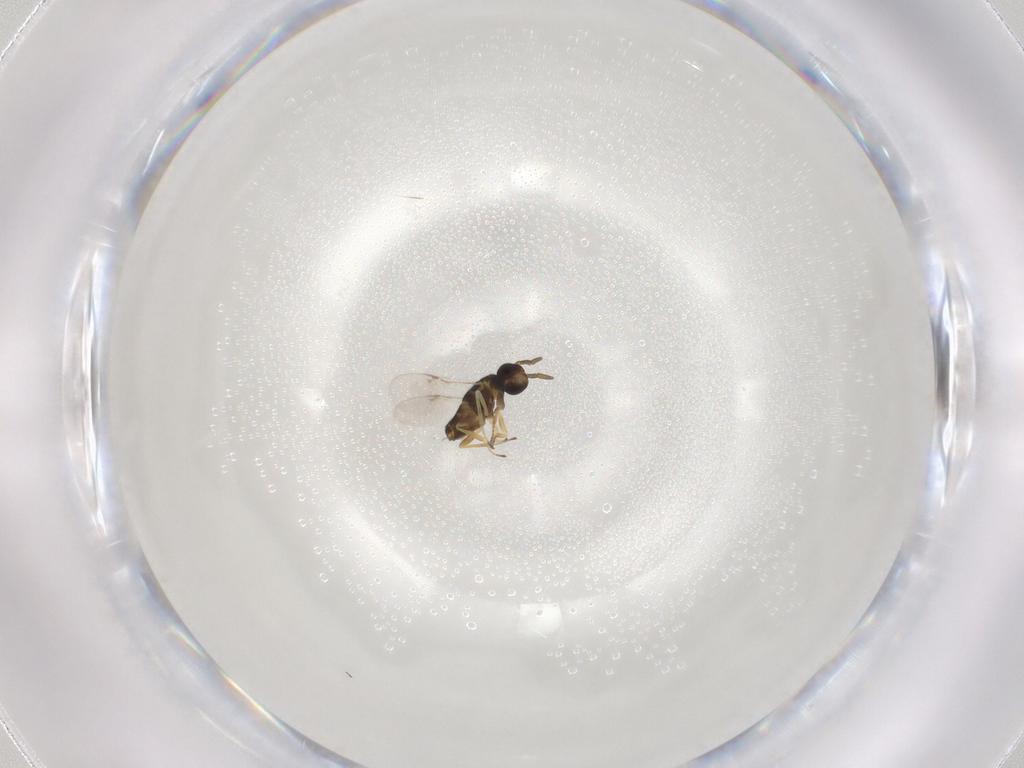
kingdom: Animalia
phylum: Arthropoda
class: Insecta
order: Hymenoptera
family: Encyrtidae
